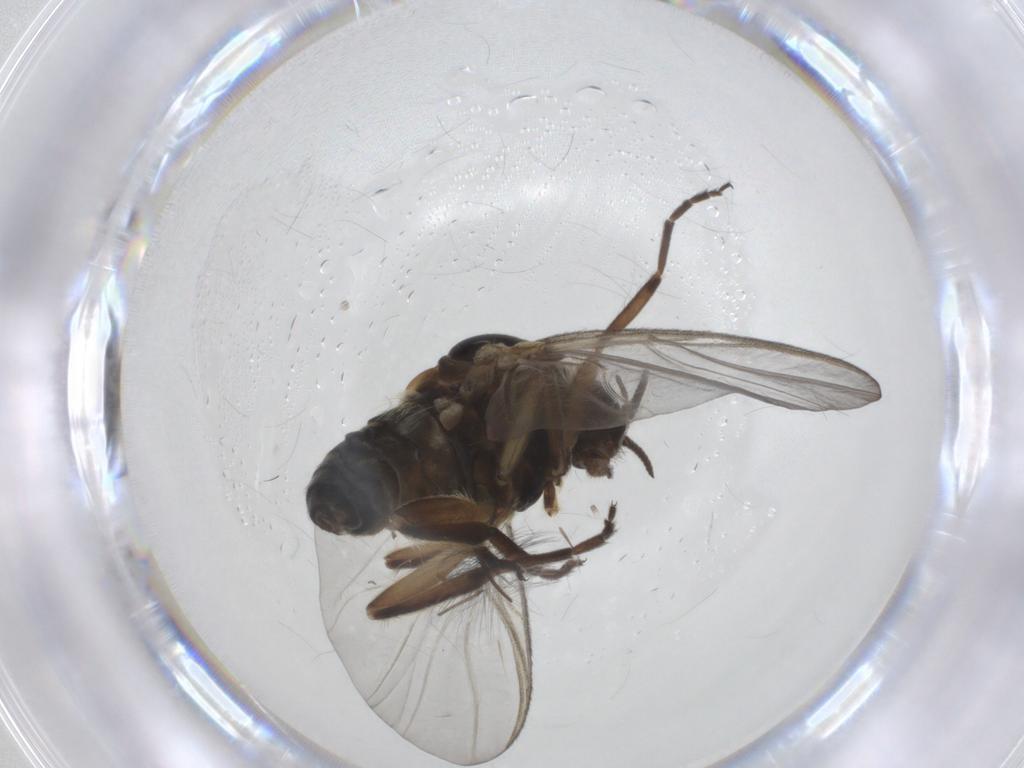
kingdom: Animalia
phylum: Arthropoda
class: Insecta
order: Diptera
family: Simuliidae
